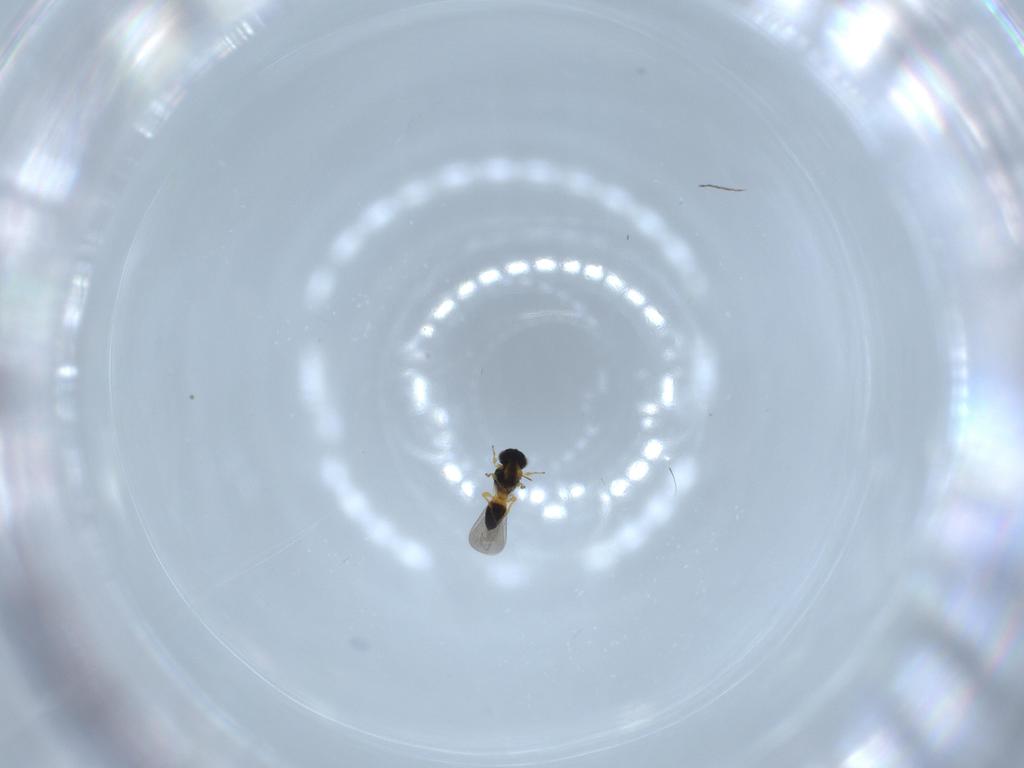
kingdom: Animalia
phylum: Arthropoda
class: Insecta
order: Hymenoptera
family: Platygastridae
